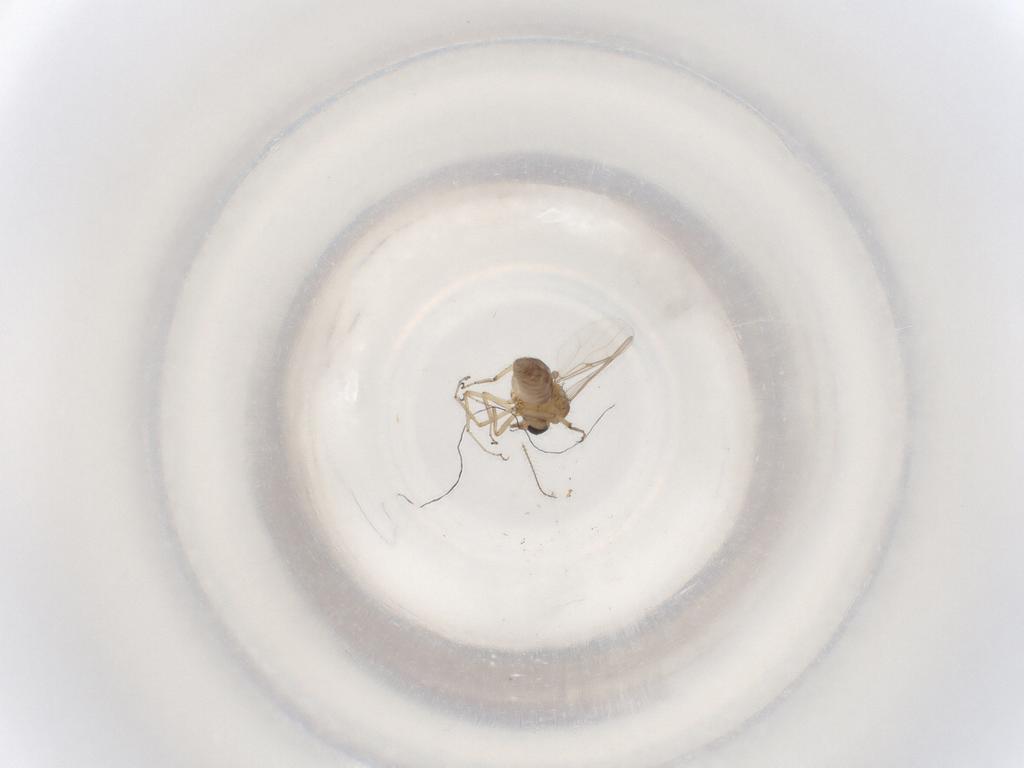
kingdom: Animalia
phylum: Arthropoda
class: Insecta
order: Diptera
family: Ceratopogonidae
